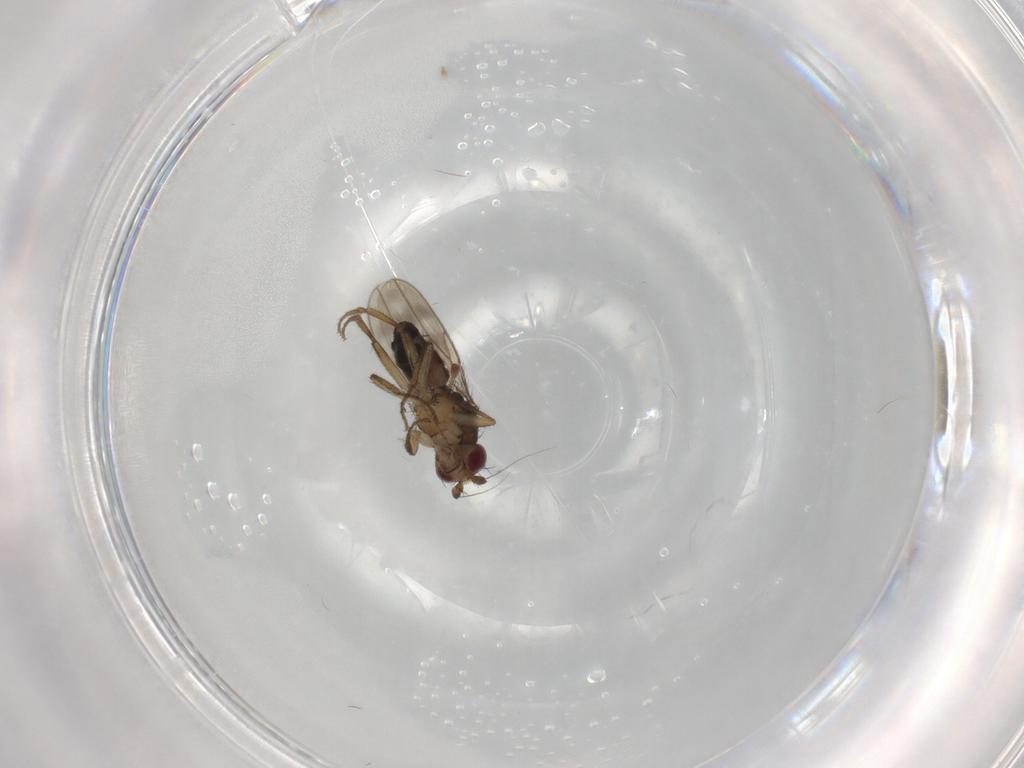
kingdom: Animalia
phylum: Arthropoda
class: Insecta
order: Diptera
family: Sphaeroceridae
